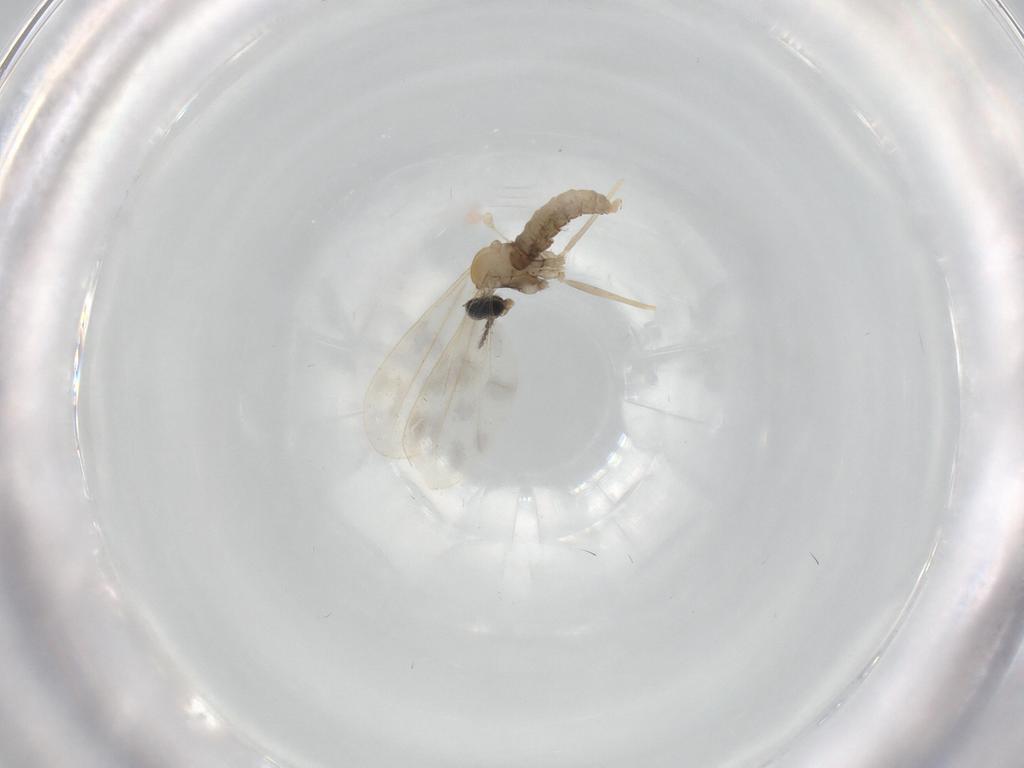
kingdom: Animalia
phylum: Arthropoda
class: Insecta
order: Diptera
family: Cecidomyiidae
